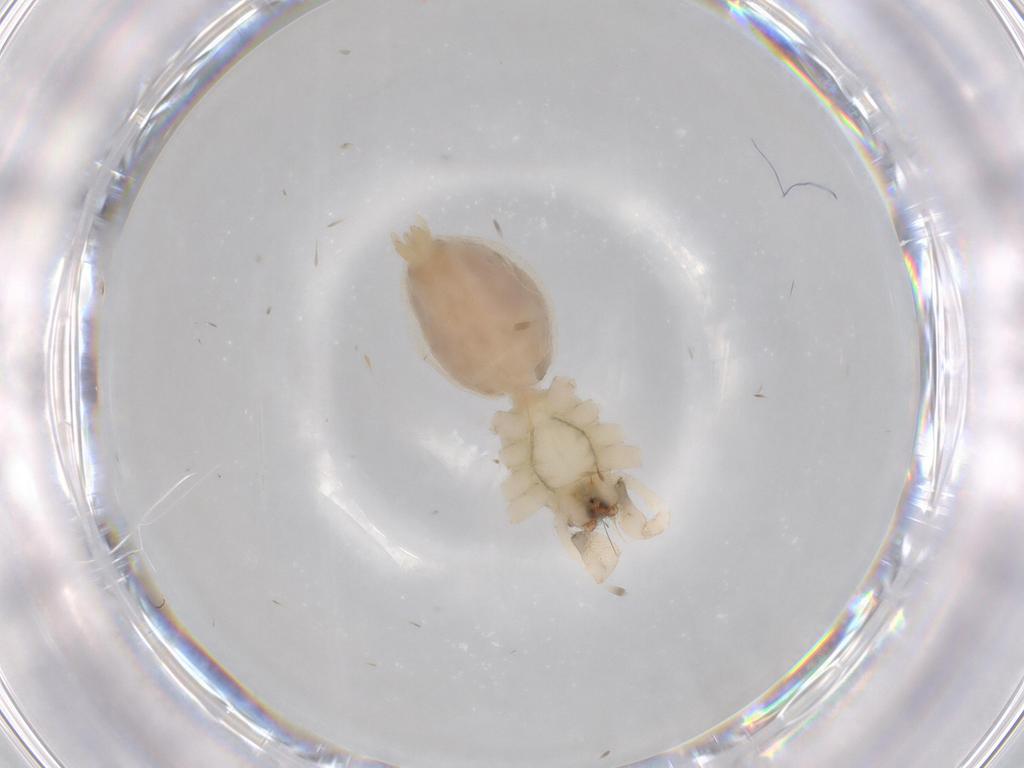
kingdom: Animalia
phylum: Arthropoda
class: Arachnida
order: Araneae
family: Anyphaenidae
